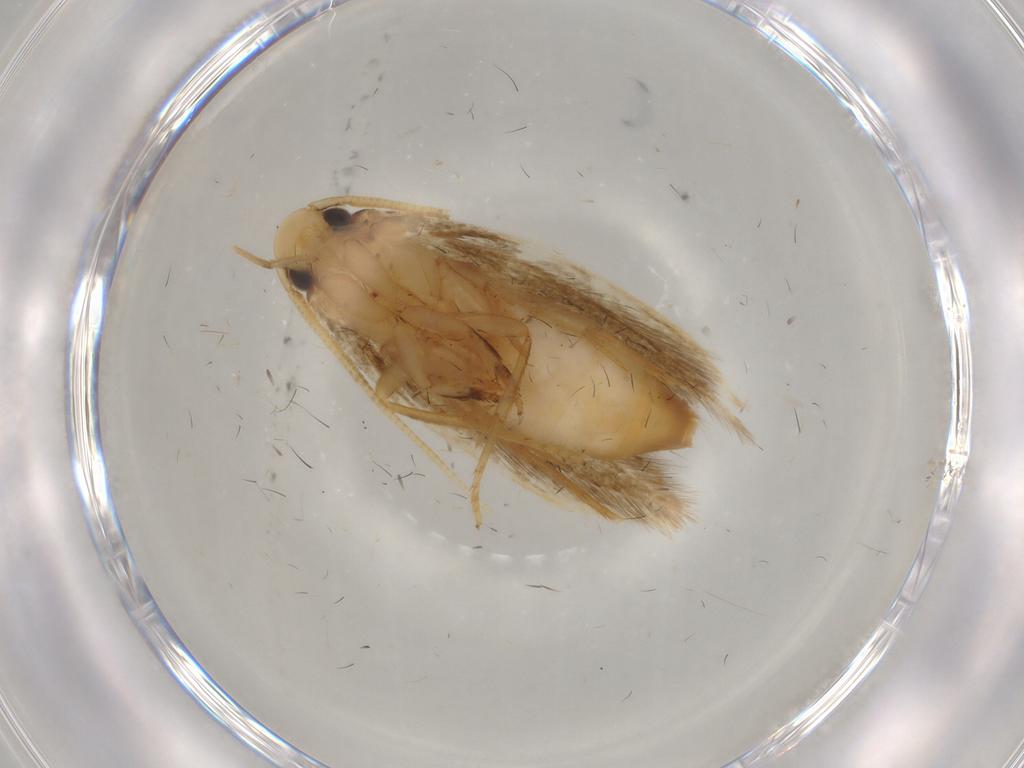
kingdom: Animalia
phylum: Arthropoda
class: Insecta
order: Lepidoptera
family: Tineidae
